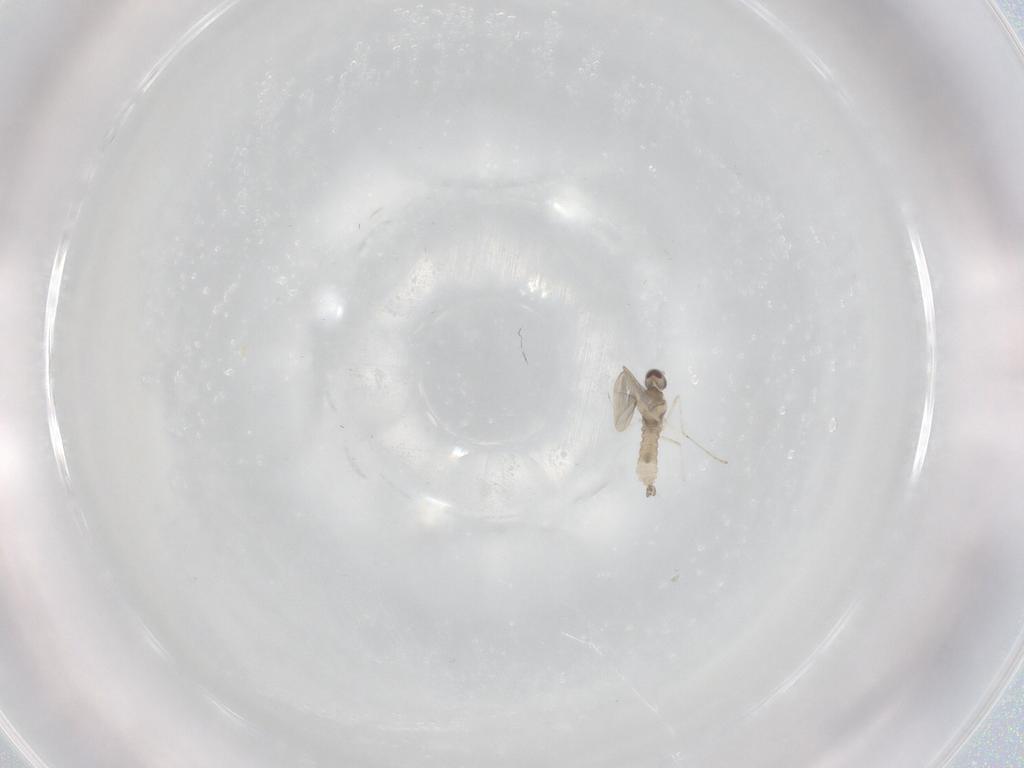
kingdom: Animalia
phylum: Arthropoda
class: Insecta
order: Diptera
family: Cecidomyiidae
